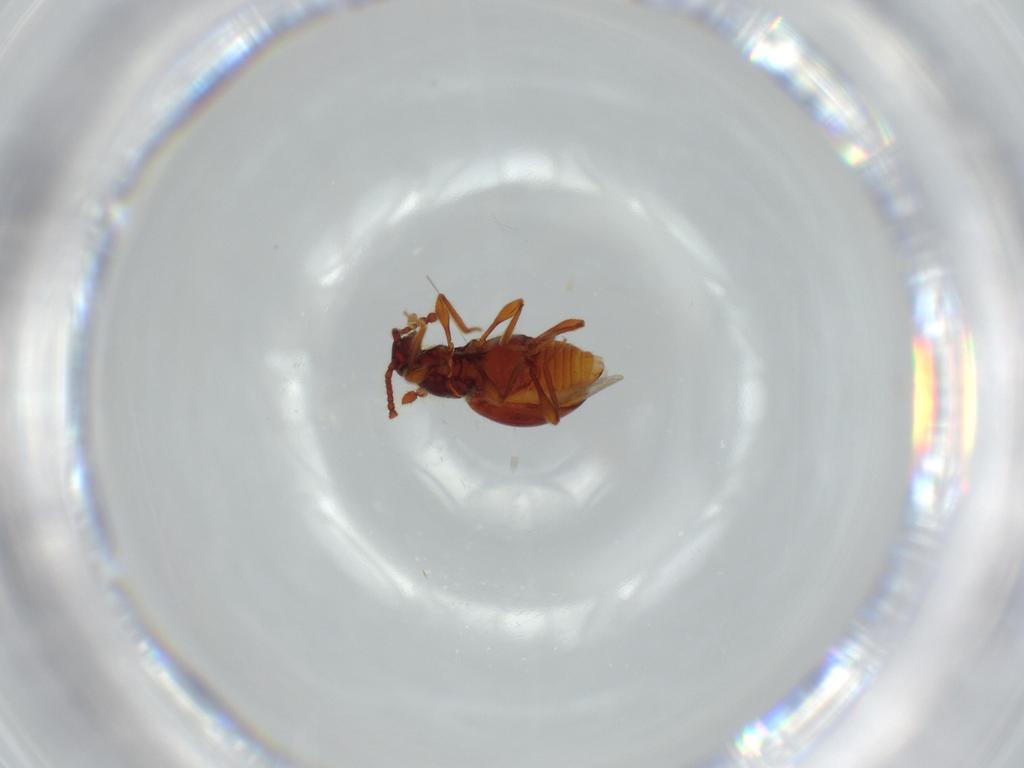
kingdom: Animalia
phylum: Arthropoda
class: Insecta
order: Coleoptera
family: Staphylinidae
